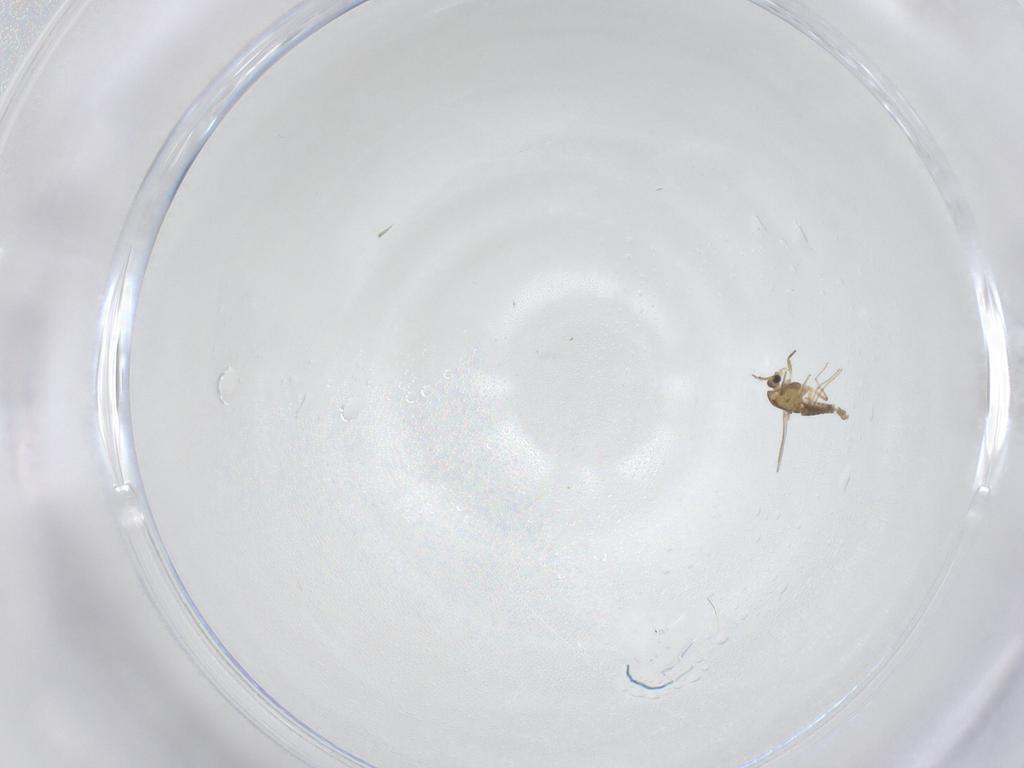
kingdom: Animalia
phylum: Arthropoda
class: Insecta
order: Diptera
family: Chironomidae
